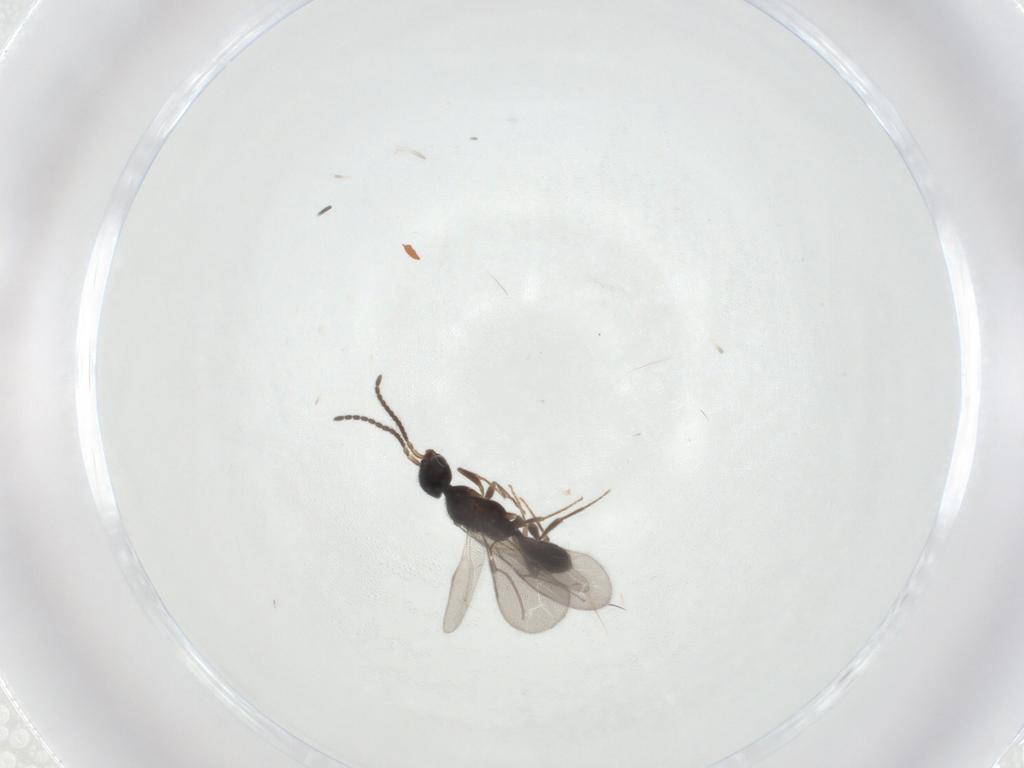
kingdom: Animalia
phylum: Arthropoda
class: Insecta
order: Hymenoptera
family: Bethylidae
